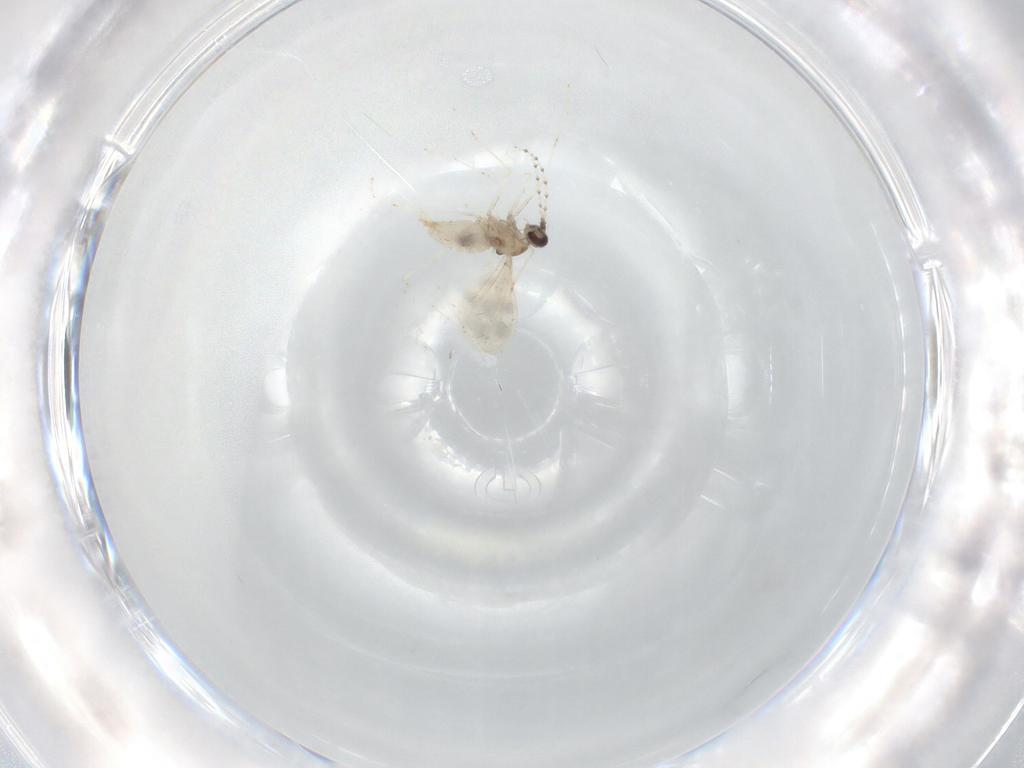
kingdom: Animalia
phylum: Arthropoda
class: Insecta
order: Diptera
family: Cecidomyiidae
